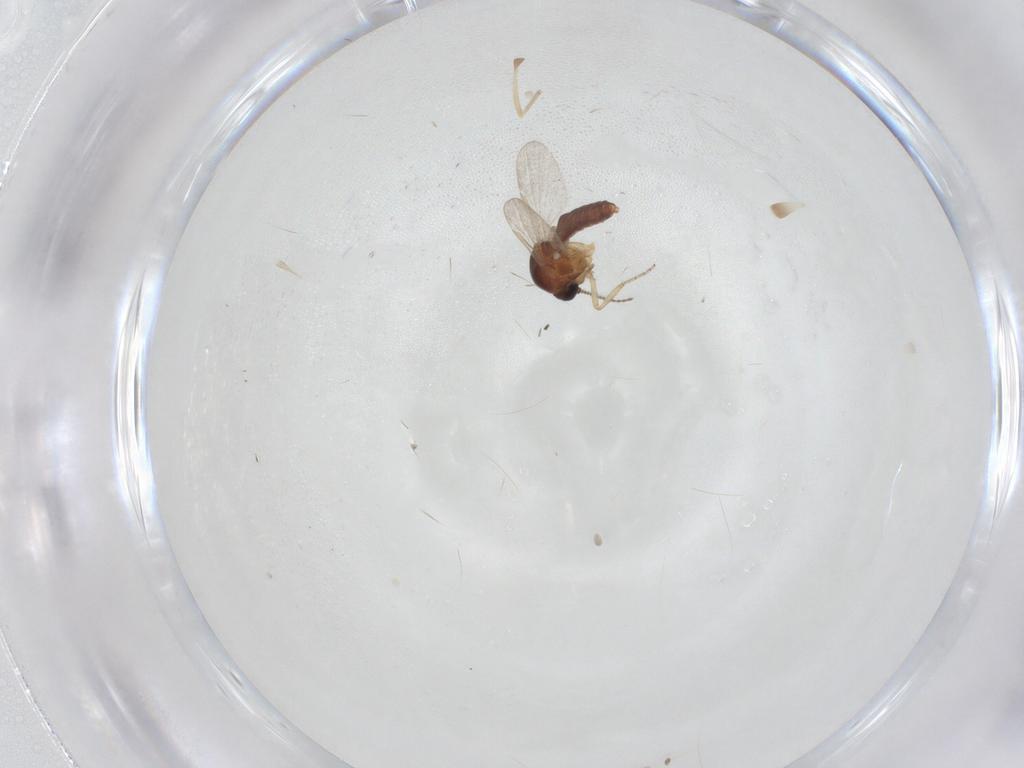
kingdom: Animalia
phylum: Arthropoda
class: Insecta
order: Diptera
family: Ceratopogonidae
